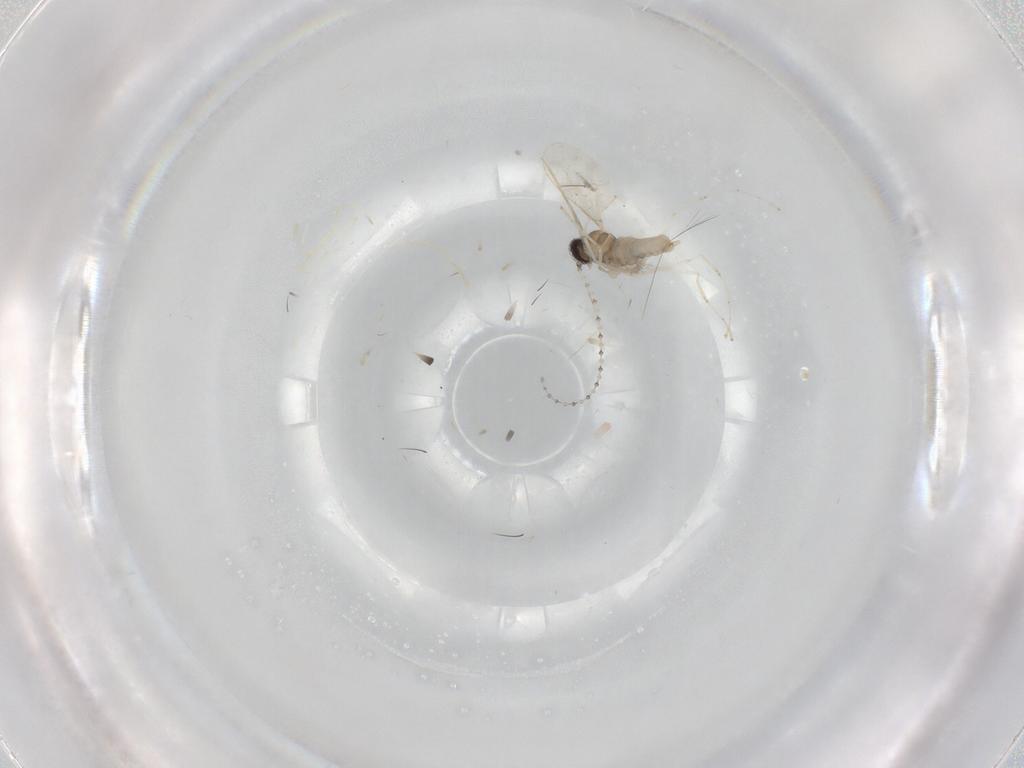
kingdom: Animalia
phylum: Arthropoda
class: Insecta
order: Diptera
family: Cecidomyiidae
